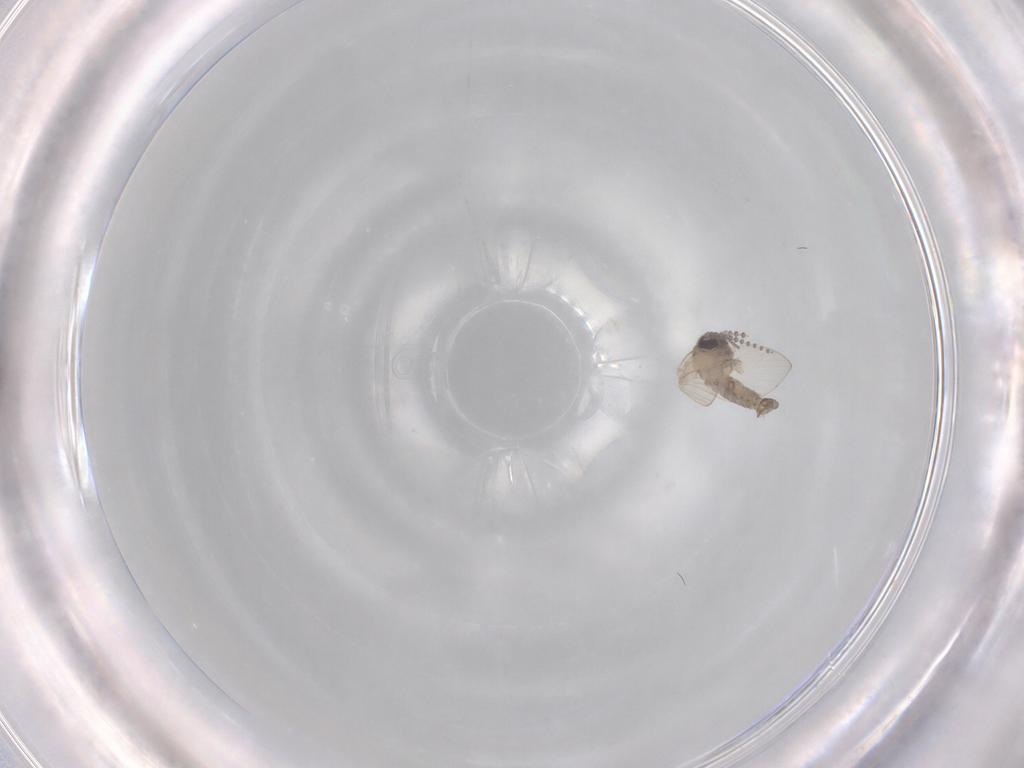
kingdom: Animalia
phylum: Arthropoda
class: Insecta
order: Diptera
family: Psychodidae
